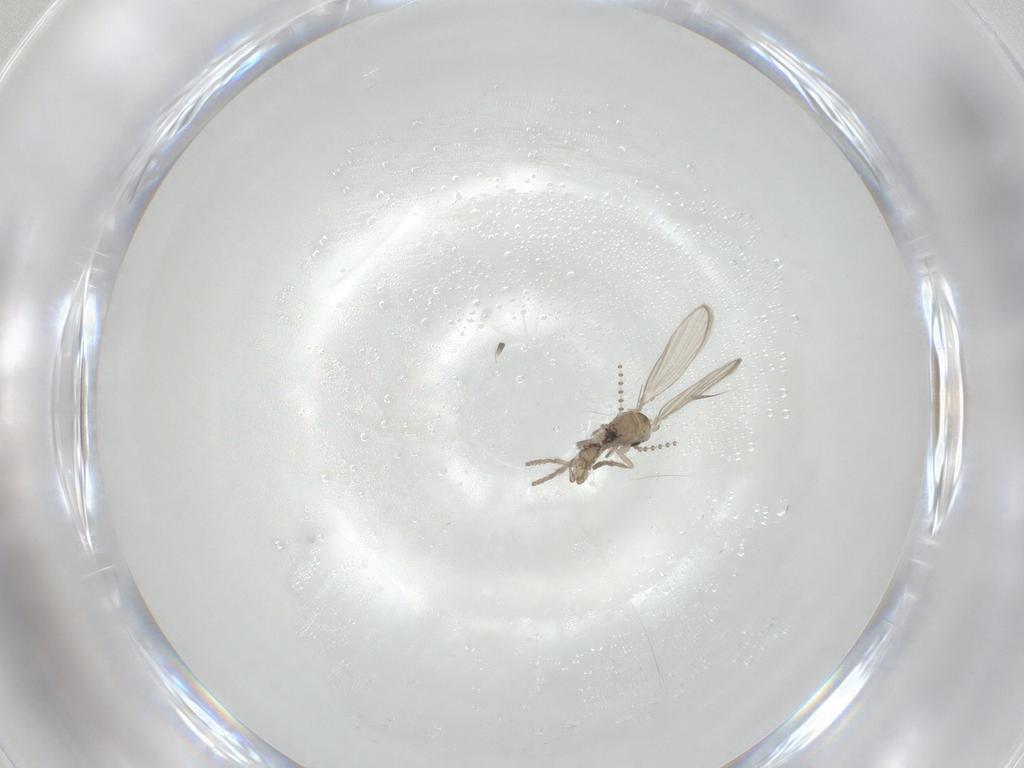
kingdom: Animalia
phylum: Arthropoda
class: Insecta
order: Diptera
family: Psychodidae
